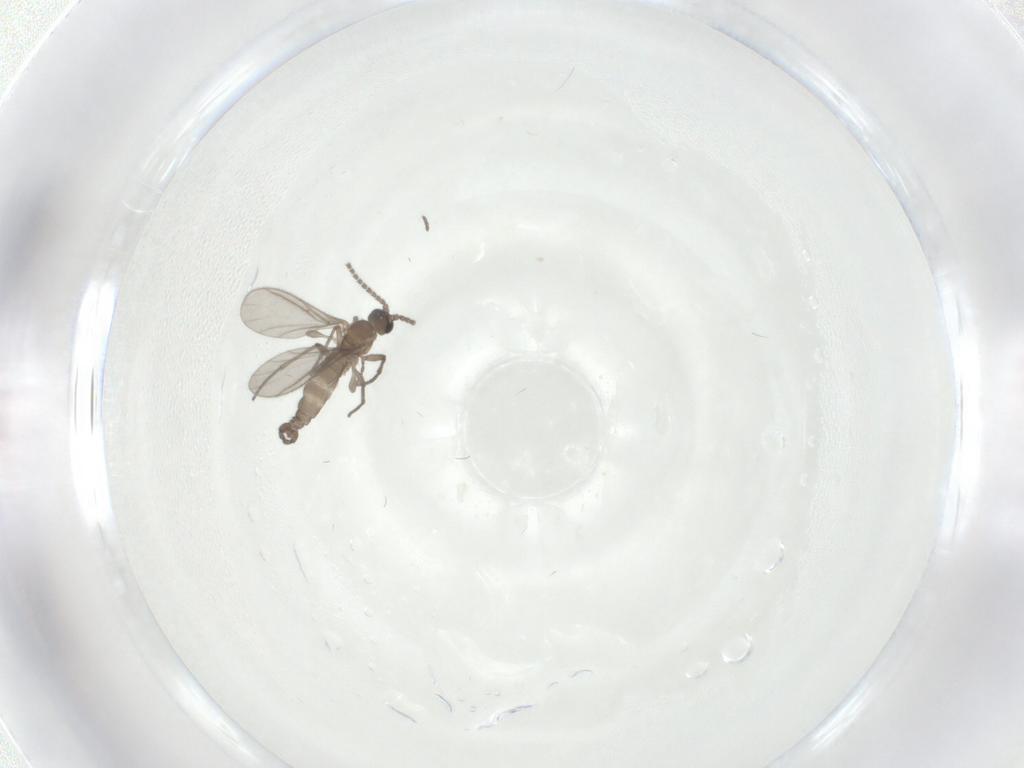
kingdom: Animalia
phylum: Arthropoda
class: Insecta
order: Diptera
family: Sciaridae
